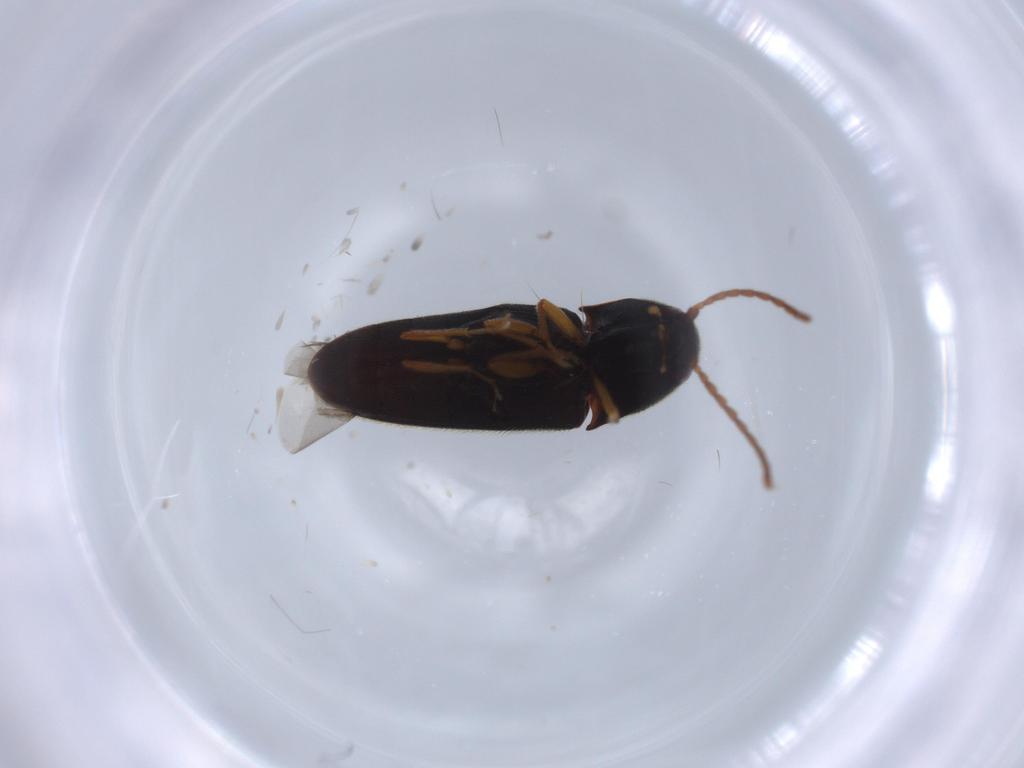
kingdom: Animalia
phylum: Arthropoda
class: Insecta
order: Coleoptera
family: Elateridae
